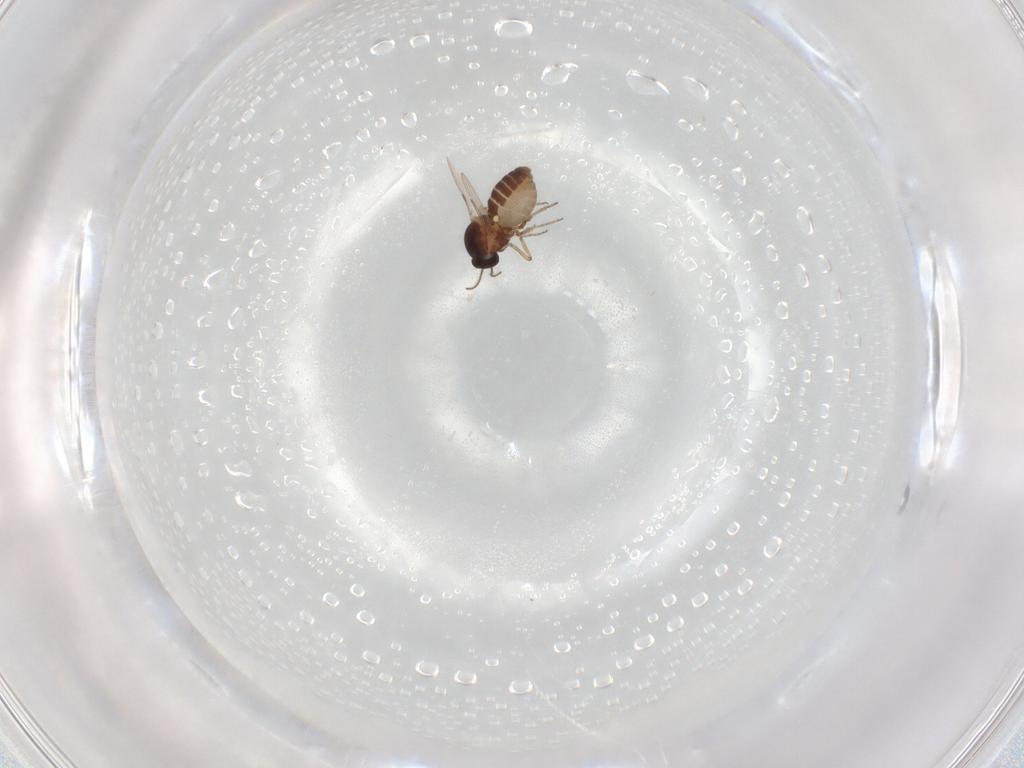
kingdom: Animalia
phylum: Arthropoda
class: Insecta
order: Diptera
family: Ceratopogonidae
